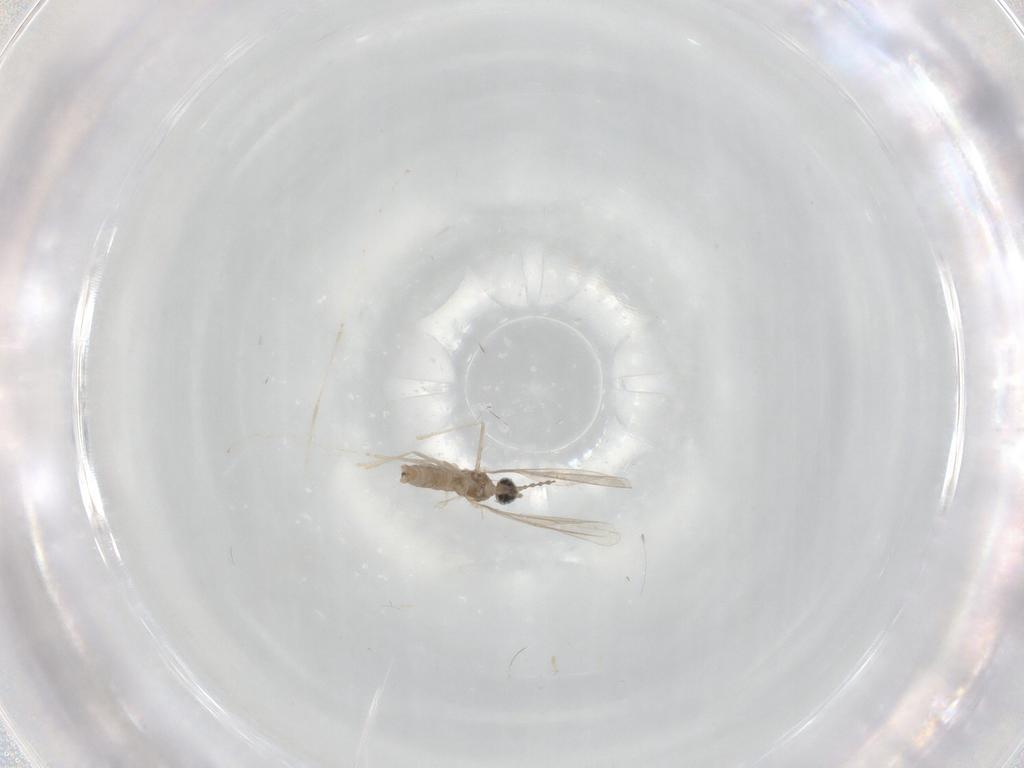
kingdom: Animalia
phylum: Arthropoda
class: Insecta
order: Diptera
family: Cecidomyiidae
